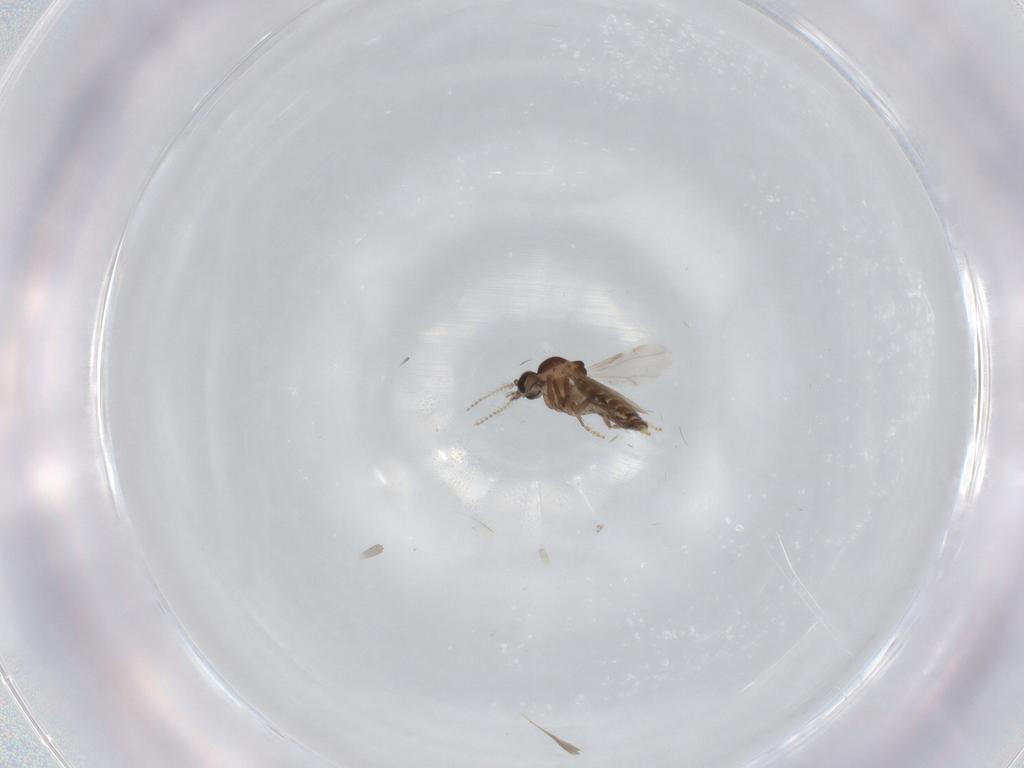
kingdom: Animalia
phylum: Arthropoda
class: Insecta
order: Diptera
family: Ceratopogonidae
